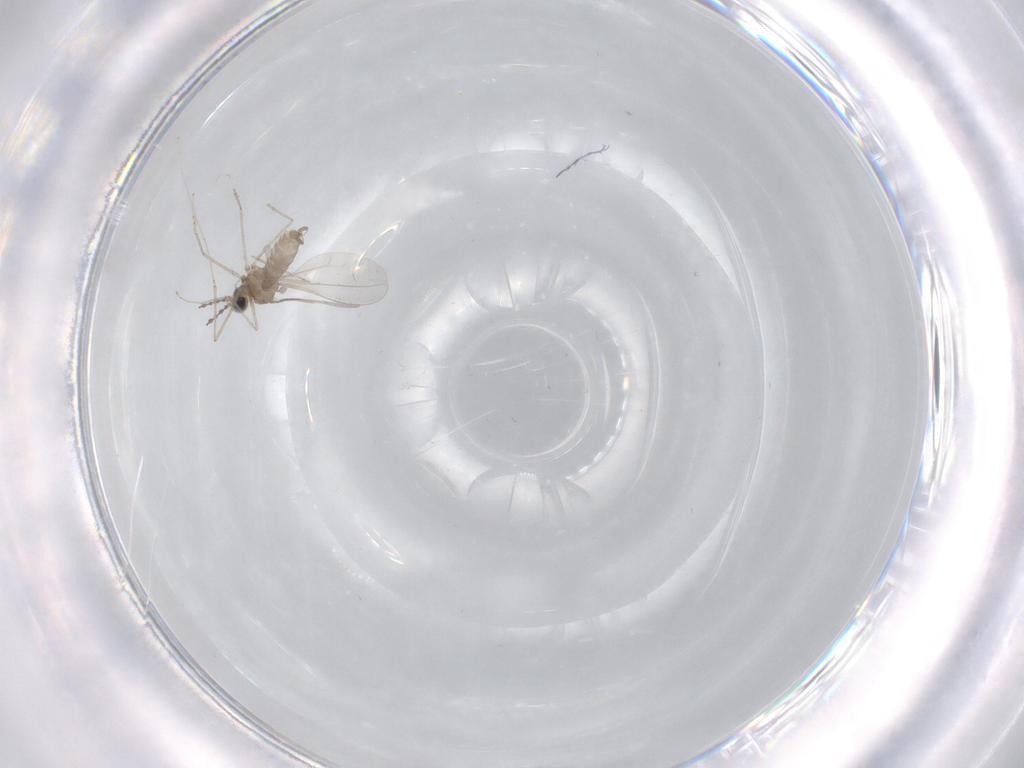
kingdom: Animalia
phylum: Arthropoda
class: Insecta
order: Diptera
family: Cecidomyiidae
